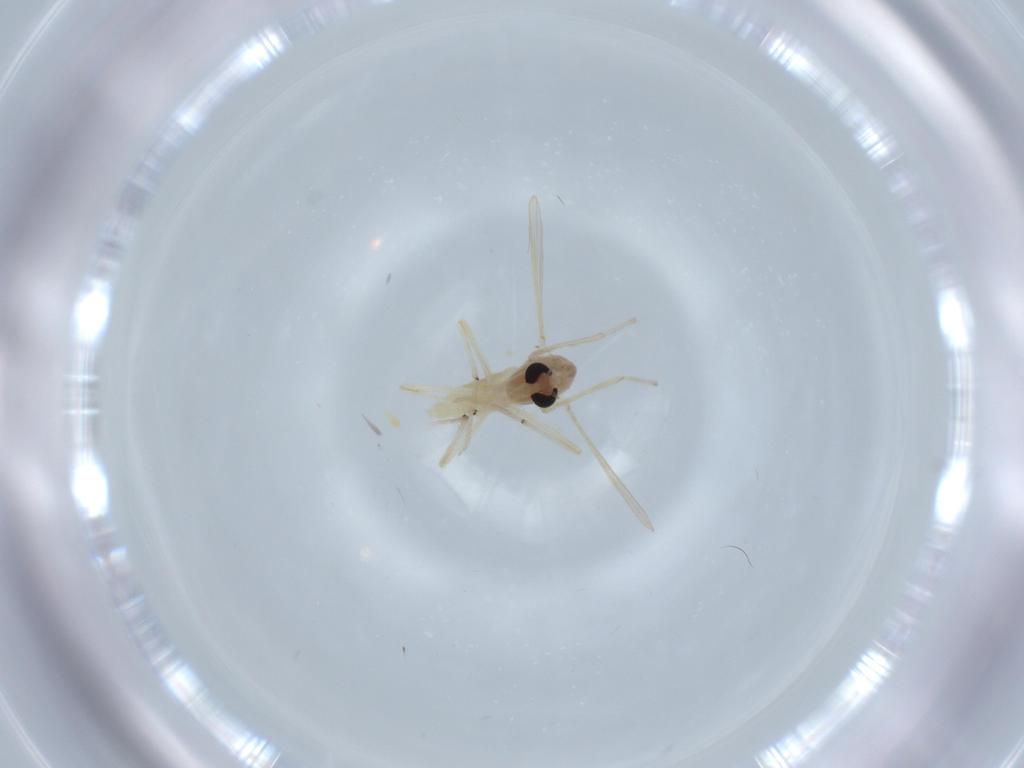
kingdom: Animalia
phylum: Arthropoda
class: Insecta
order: Diptera
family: Chironomidae
